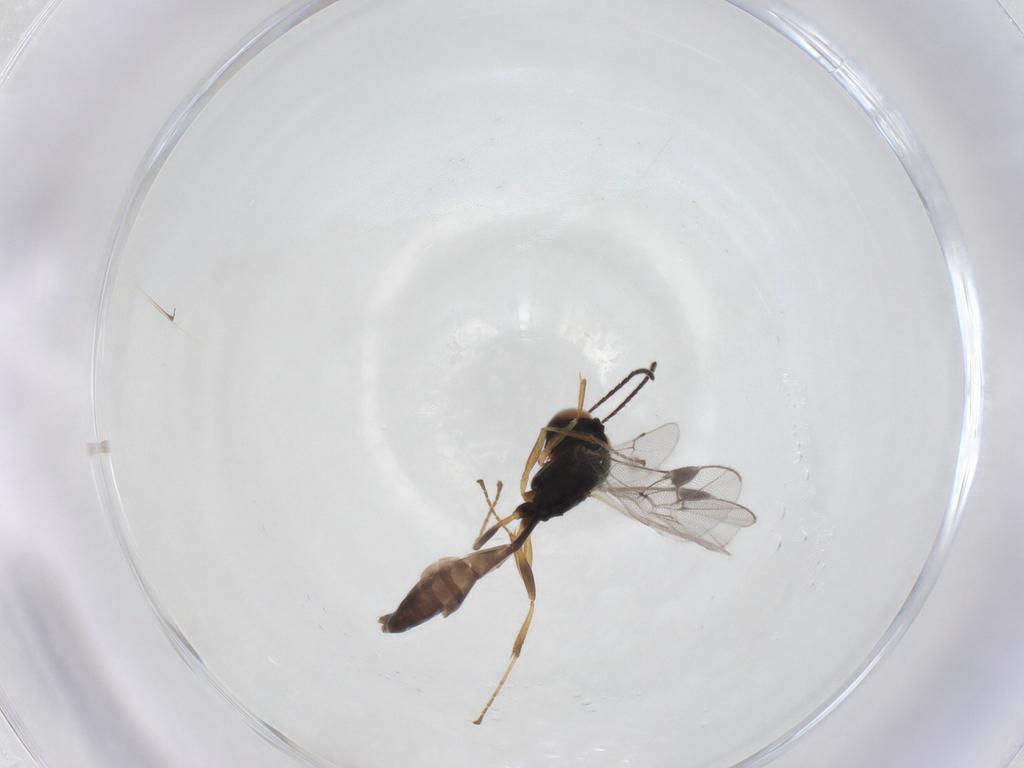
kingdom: Animalia
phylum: Arthropoda
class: Insecta
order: Hymenoptera
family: Ichneumonidae
